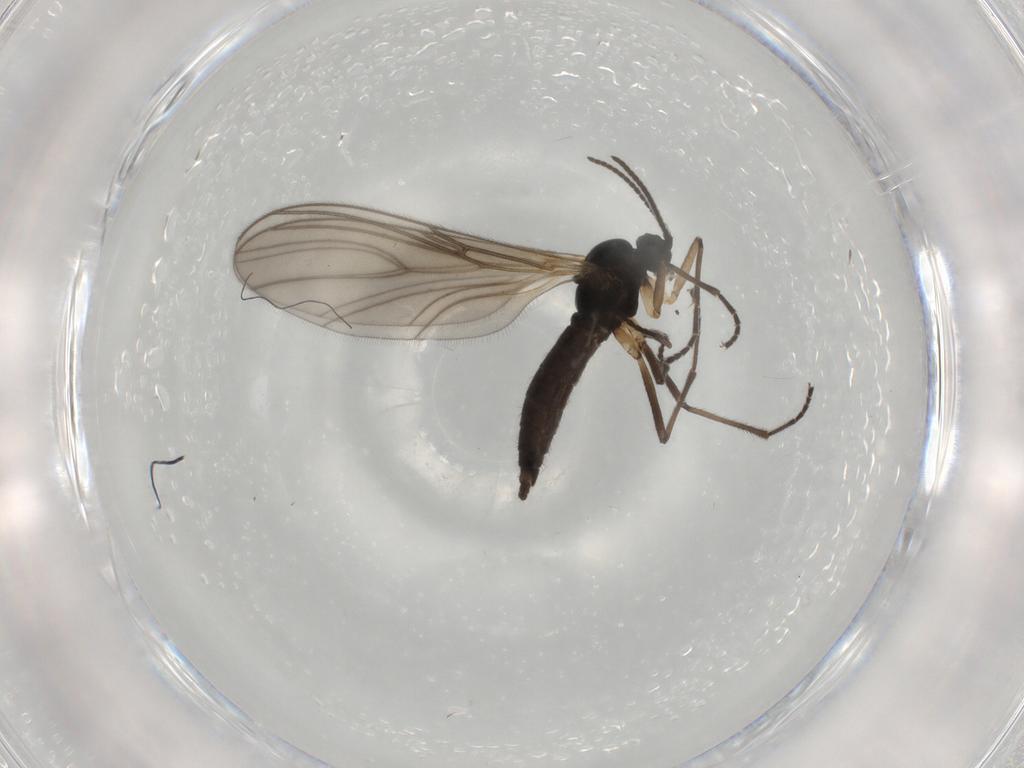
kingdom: Animalia
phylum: Arthropoda
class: Insecta
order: Diptera
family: Sciaridae
